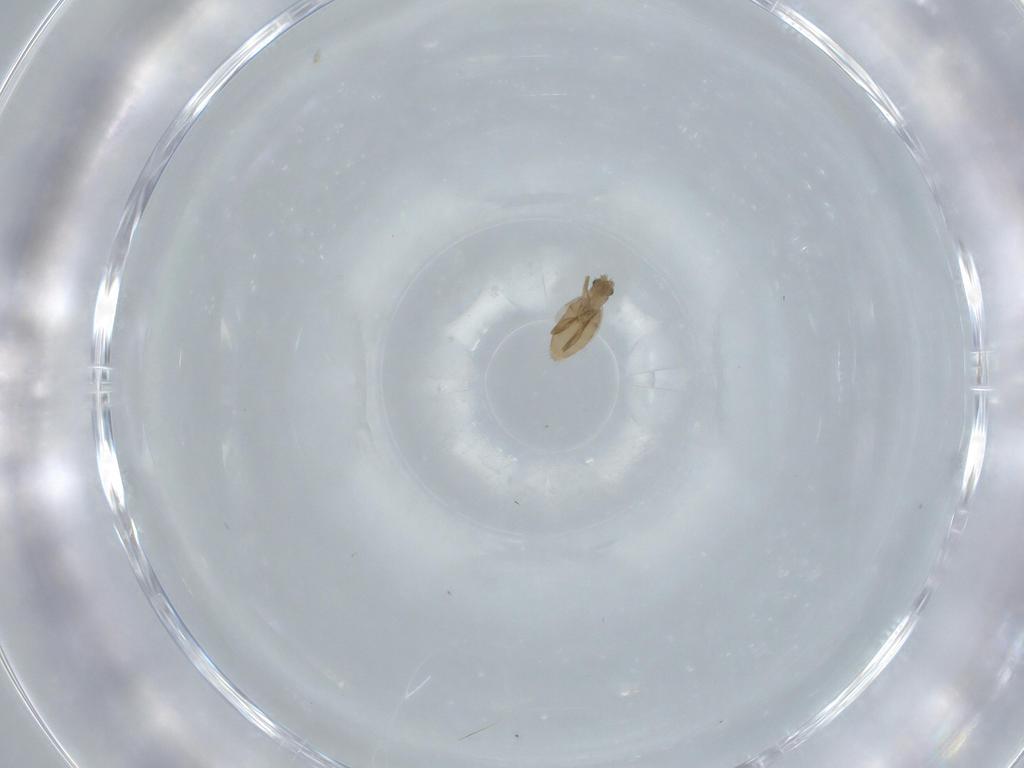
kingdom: Animalia
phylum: Arthropoda
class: Insecta
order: Diptera
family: Phoridae
